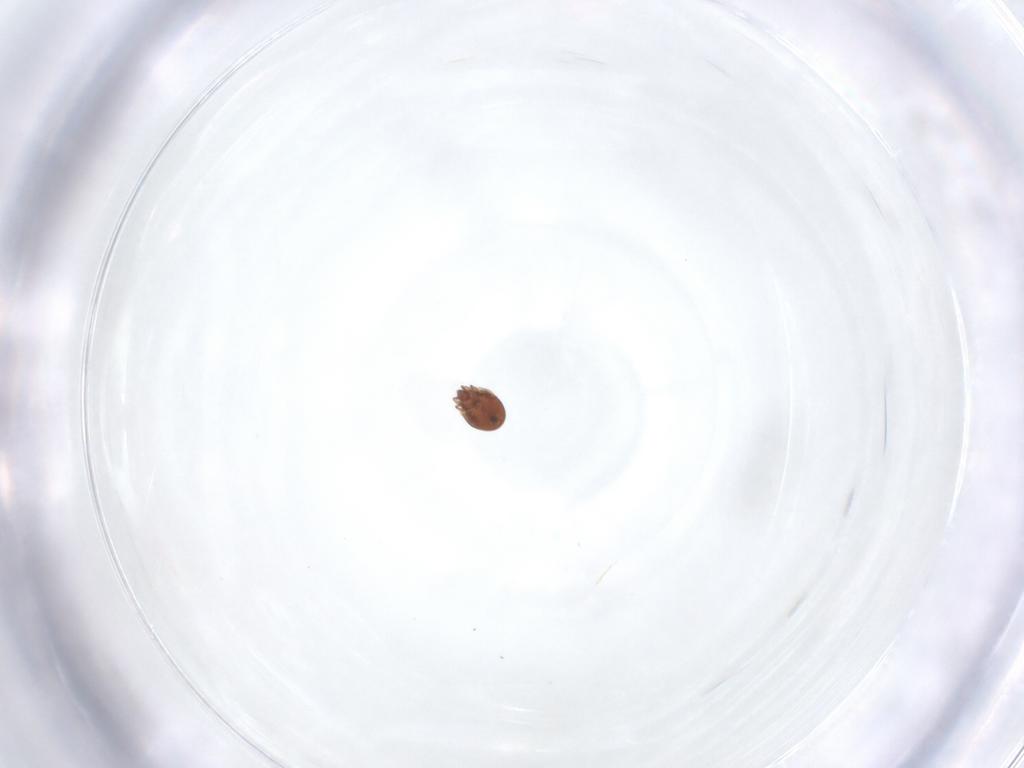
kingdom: Animalia
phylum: Arthropoda
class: Arachnida
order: Sarcoptiformes
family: Scheloribatidae
